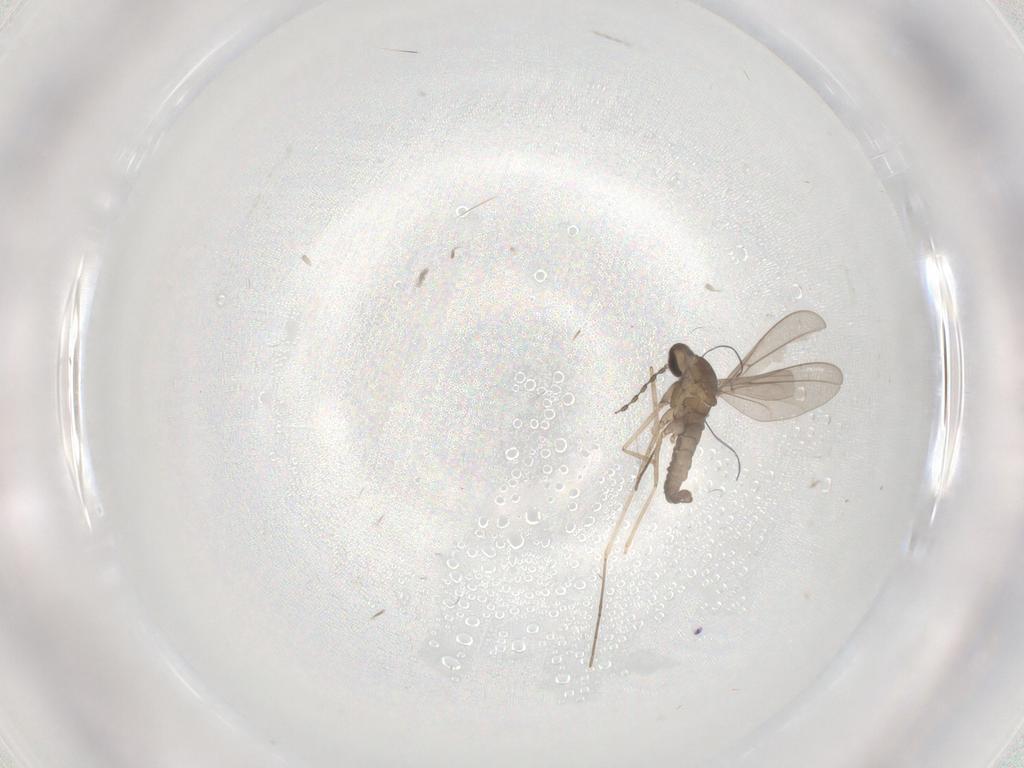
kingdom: Animalia
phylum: Arthropoda
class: Insecta
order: Diptera
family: Cecidomyiidae
